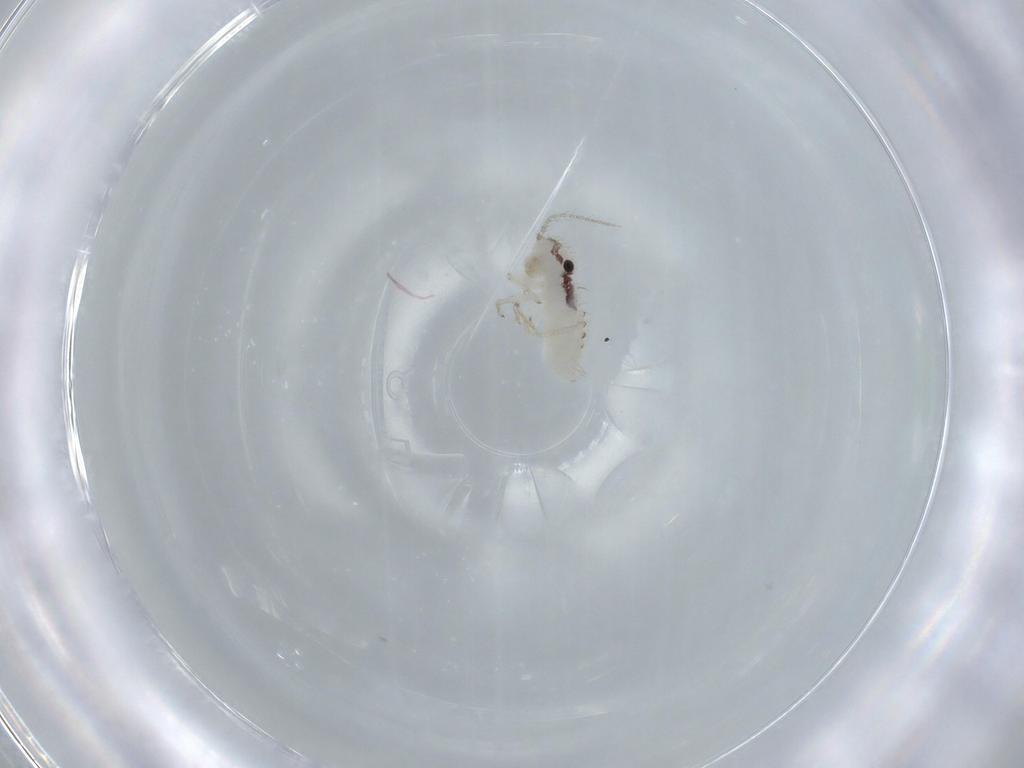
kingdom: Animalia
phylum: Arthropoda
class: Insecta
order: Psocodea
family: Pseudocaeciliidae
